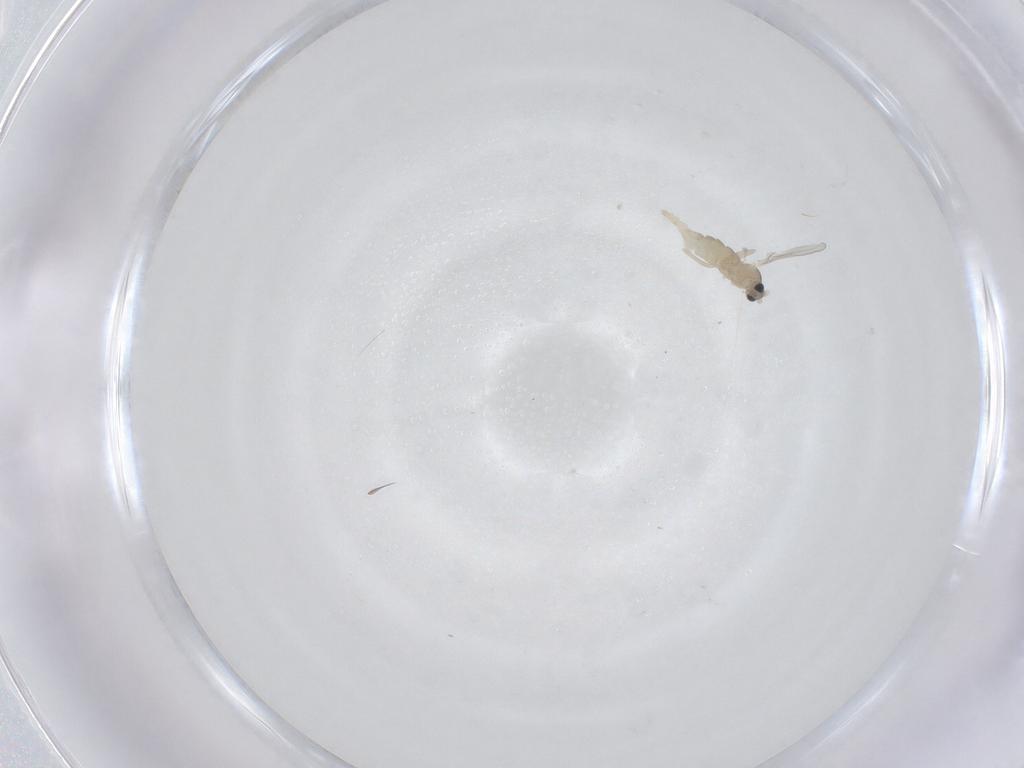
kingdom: Animalia
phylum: Arthropoda
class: Insecta
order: Diptera
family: Cecidomyiidae
